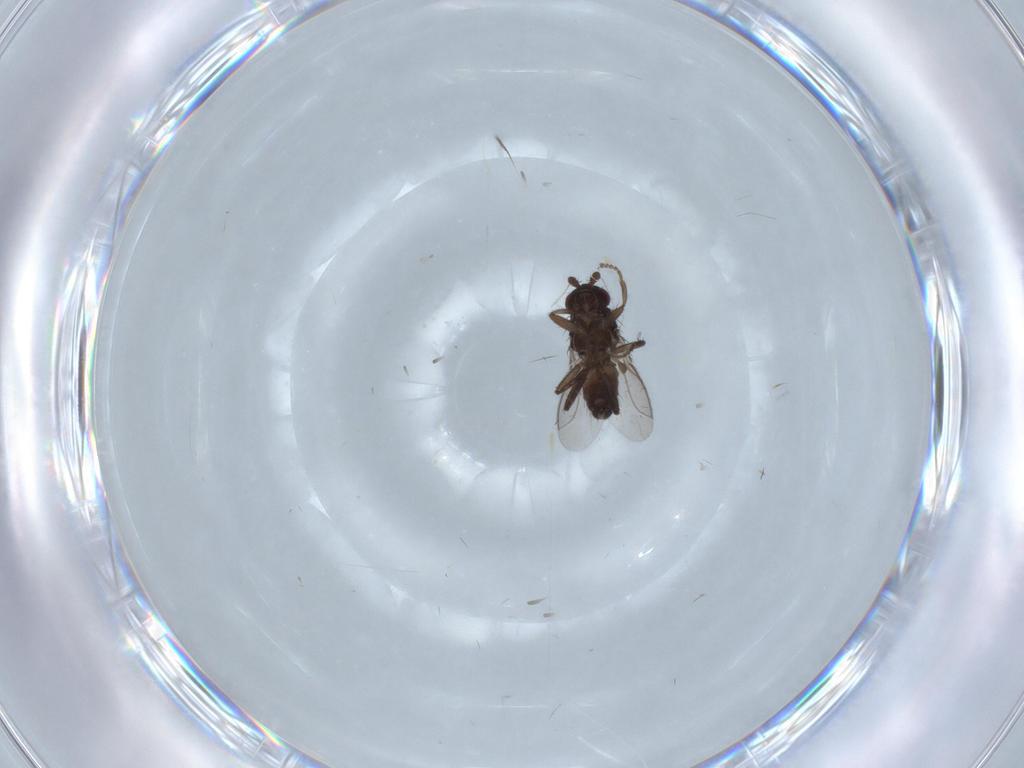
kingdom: Animalia
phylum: Arthropoda
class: Insecta
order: Diptera
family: Sphaeroceridae
